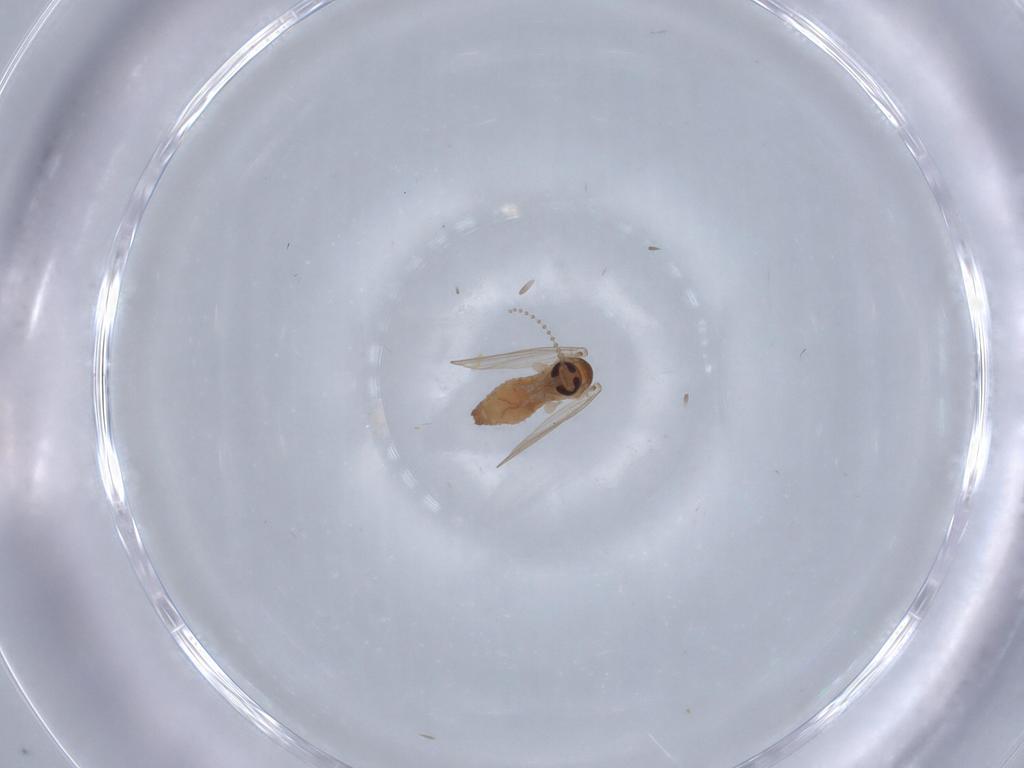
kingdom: Animalia
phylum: Arthropoda
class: Insecta
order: Diptera
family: Psychodidae
